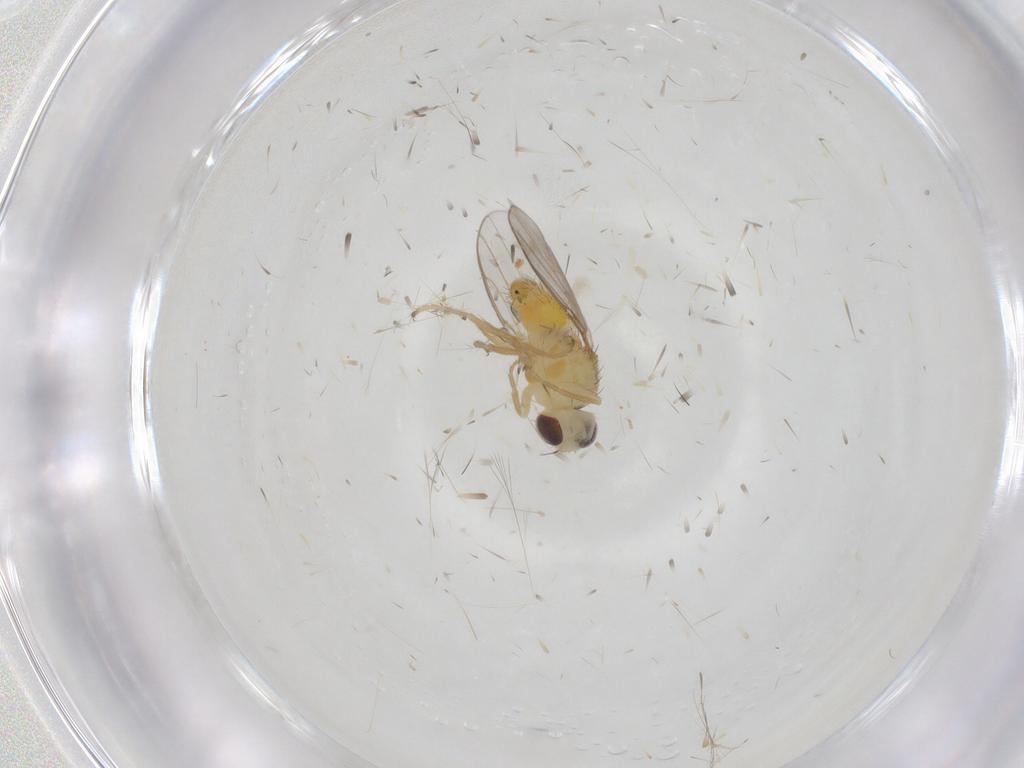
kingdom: Animalia
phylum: Arthropoda
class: Insecta
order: Diptera
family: Chloropidae
